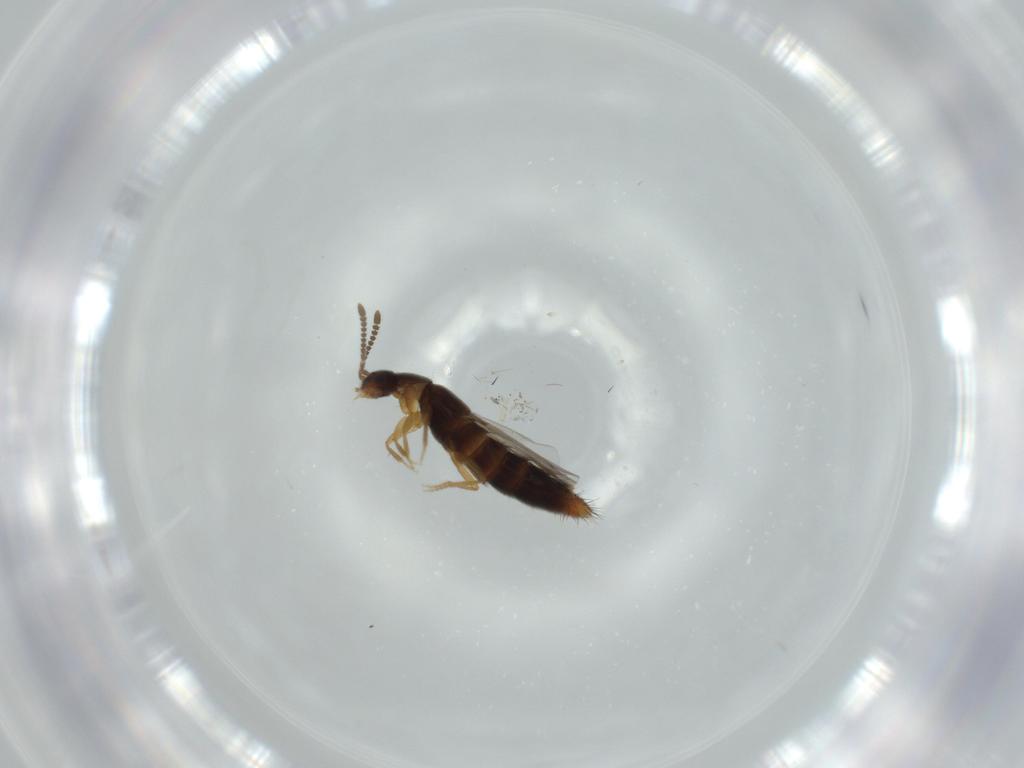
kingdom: Animalia
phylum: Arthropoda
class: Insecta
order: Coleoptera
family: Staphylinidae
